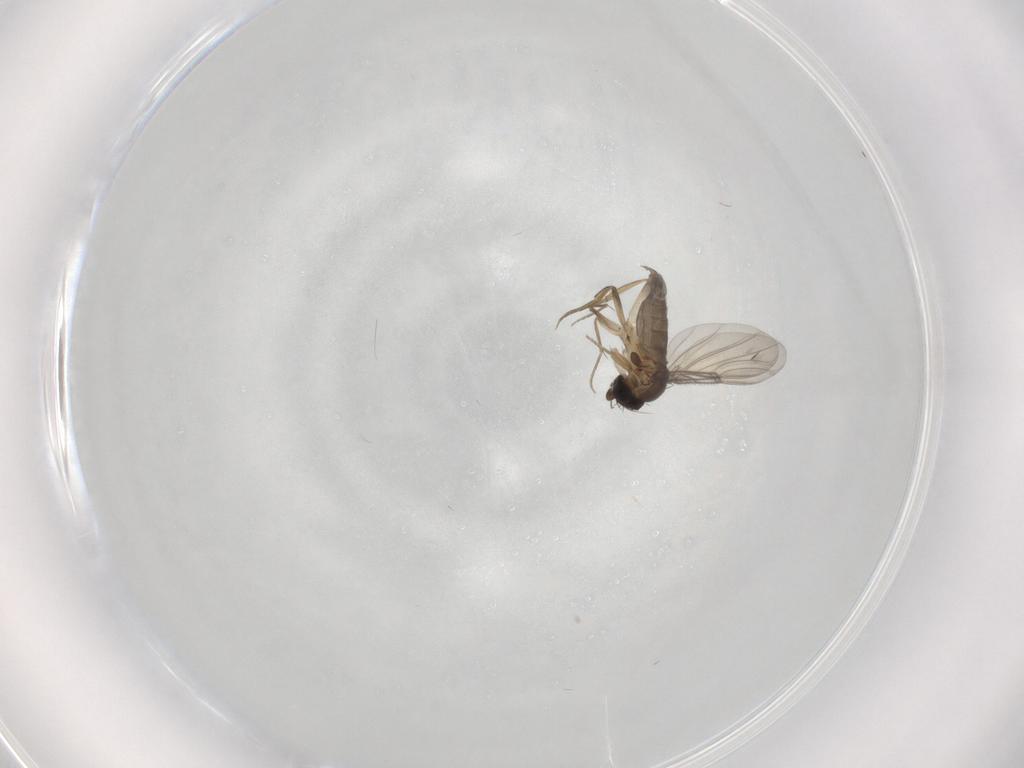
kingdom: Animalia
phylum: Arthropoda
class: Insecta
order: Diptera
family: Phoridae
